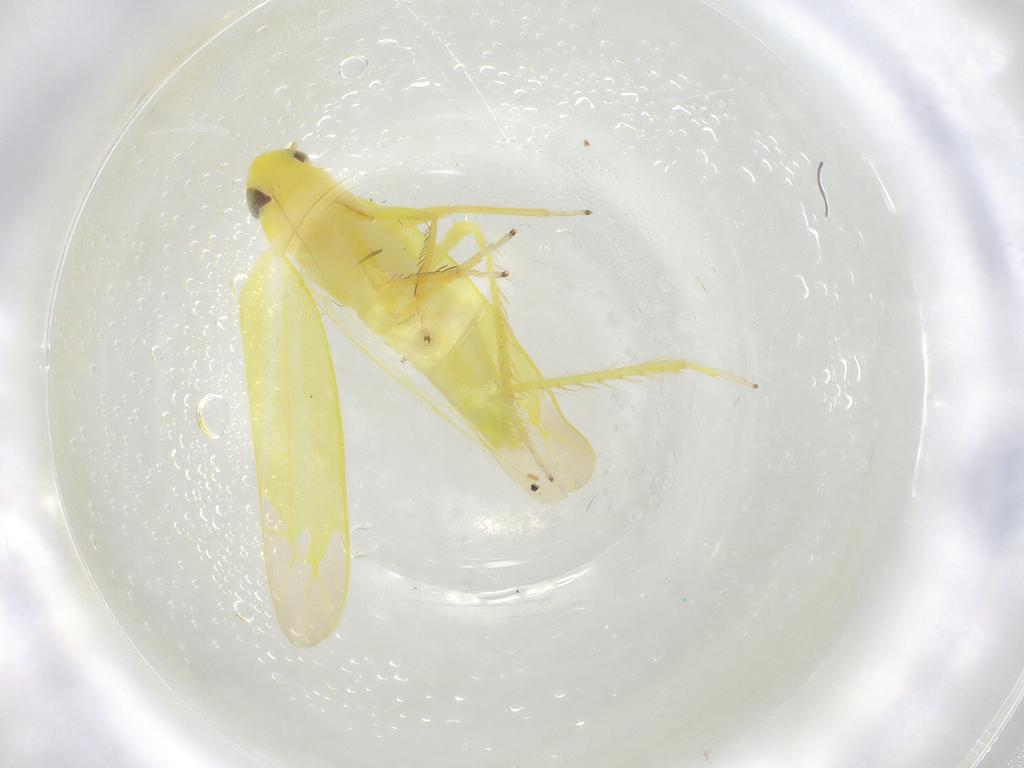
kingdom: Animalia
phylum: Arthropoda
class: Insecta
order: Hemiptera
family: Cicadellidae
